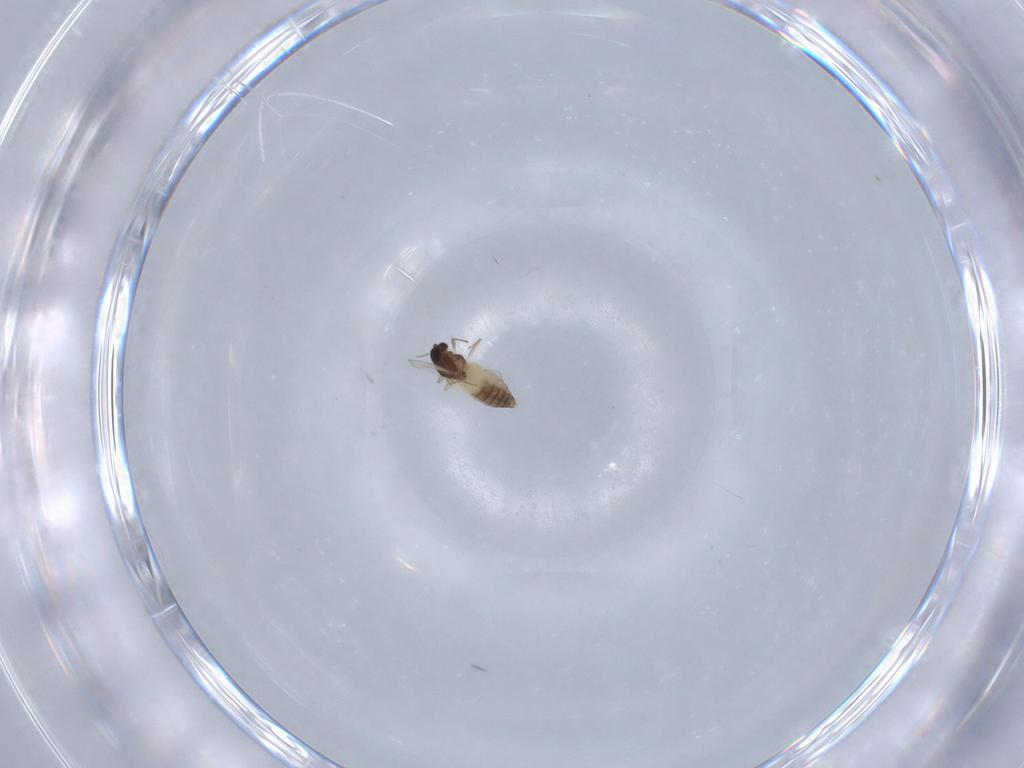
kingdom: Animalia
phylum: Arthropoda
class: Insecta
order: Diptera
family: Chironomidae
